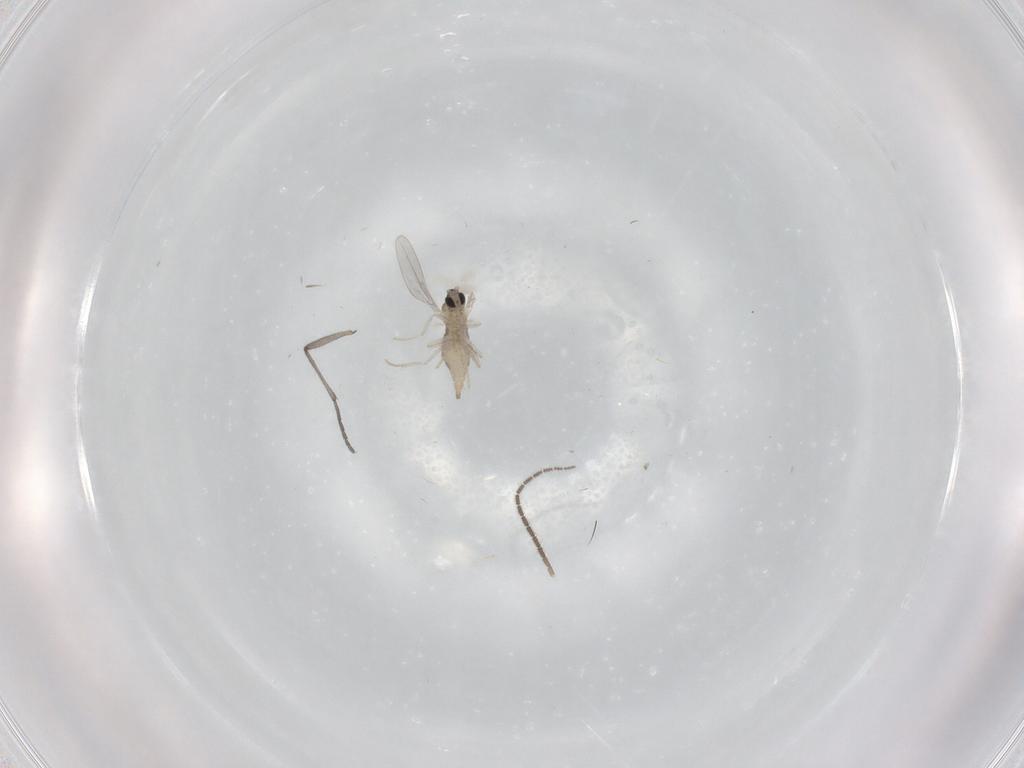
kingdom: Animalia
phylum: Arthropoda
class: Insecta
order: Diptera
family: Sciaridae
